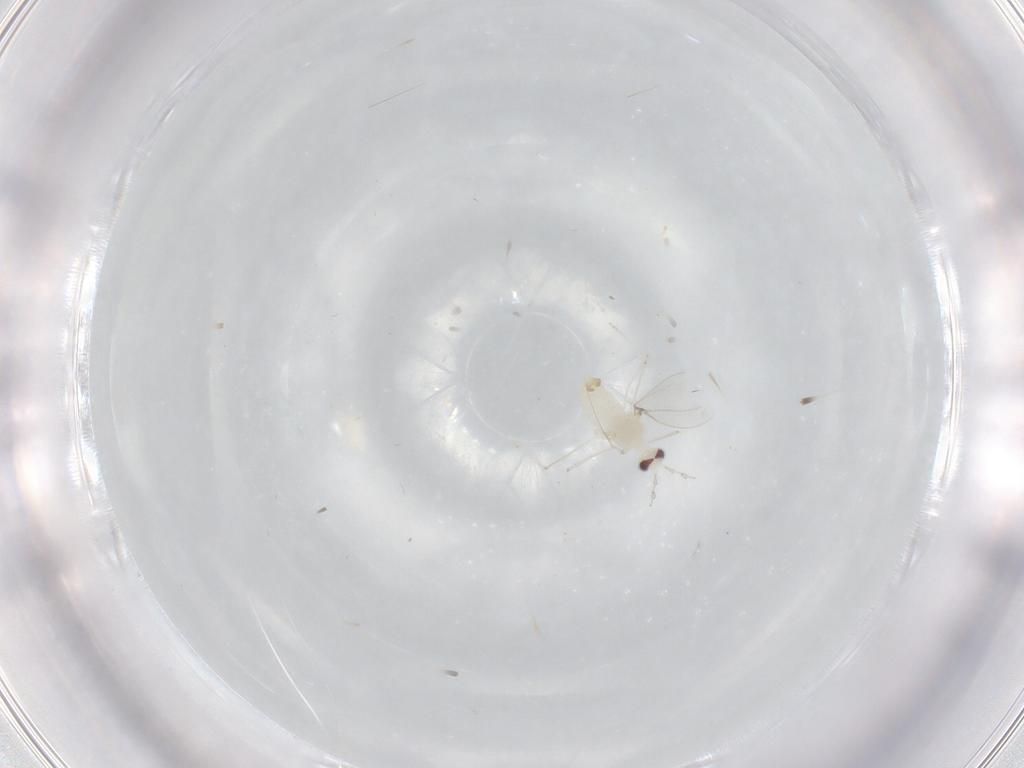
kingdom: Animalia
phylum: Arthropoda
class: Insecta
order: Diptera
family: Cecidomyiidae
